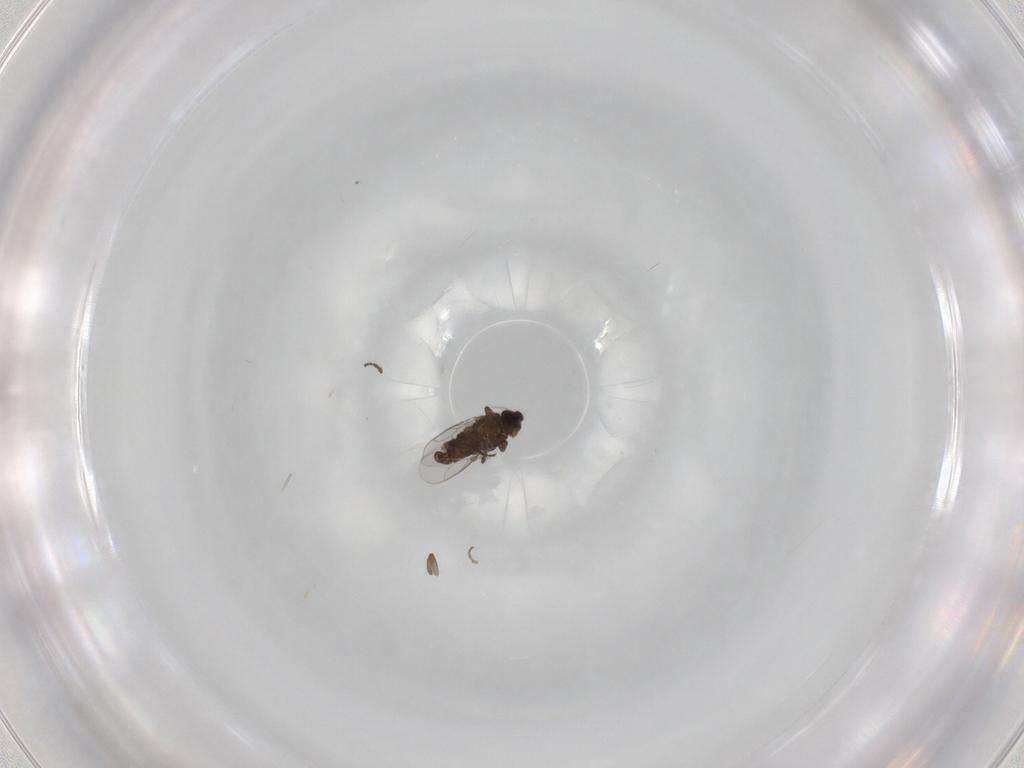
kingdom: Animalia
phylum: Arthropoda
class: Insecta
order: Diptera
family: Sphaeroceridae
